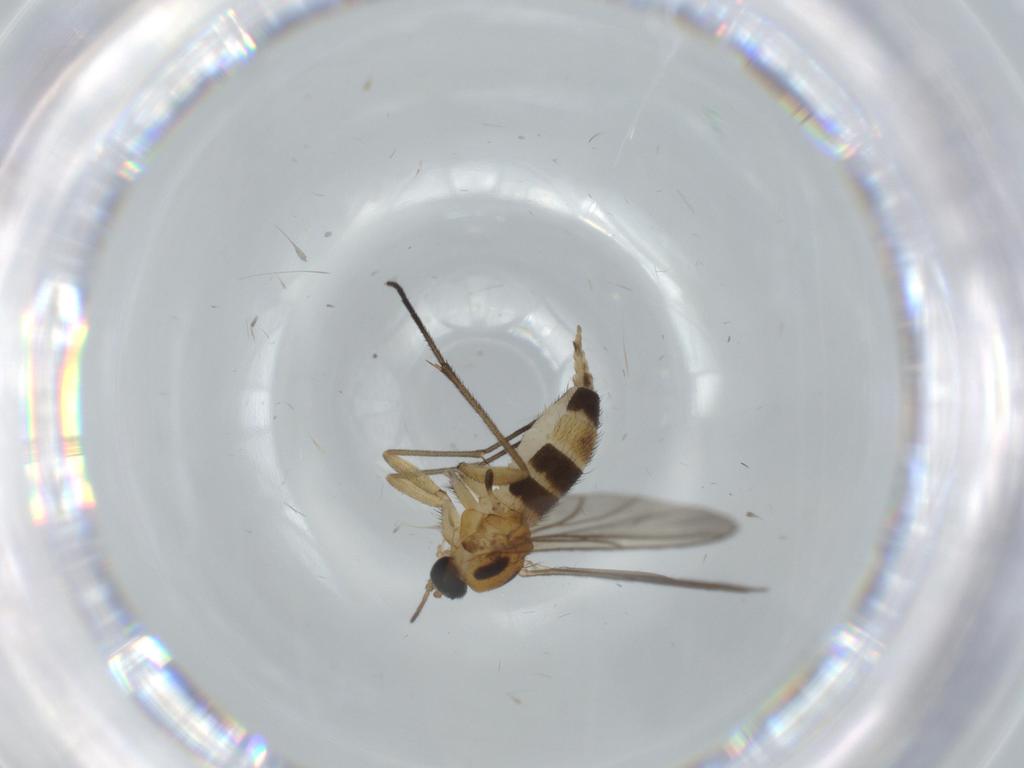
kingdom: Animalia
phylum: Arthropoda
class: Insecta
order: Diptera
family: Limoniidae
